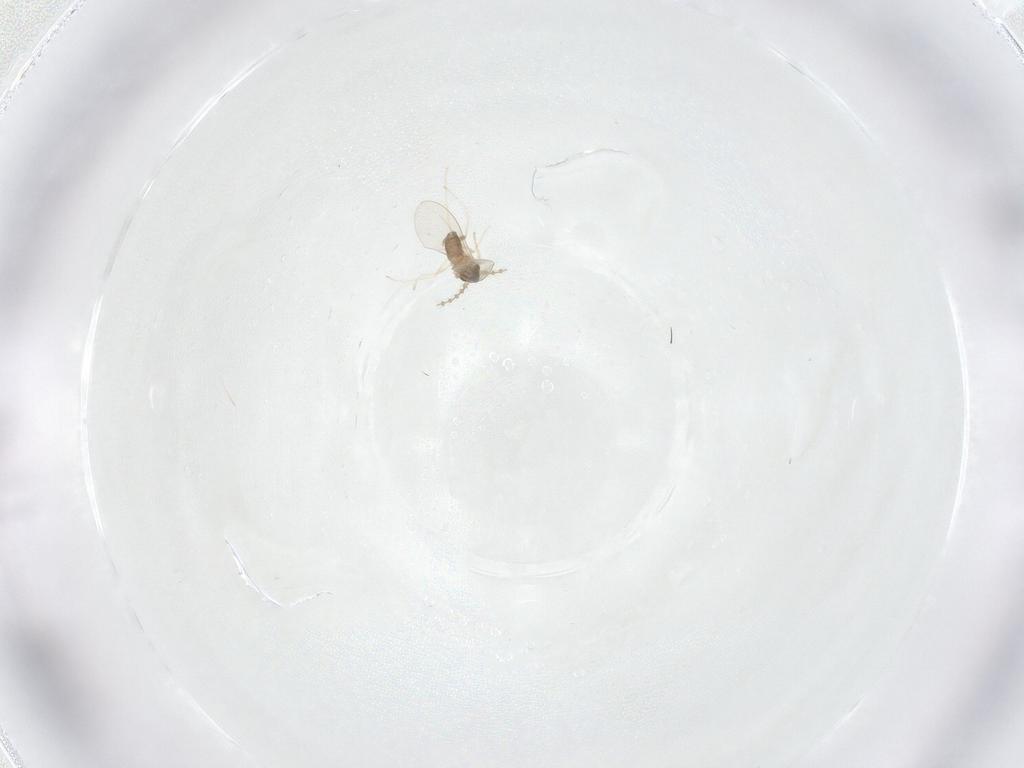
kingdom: Animalia
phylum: Arthropoda
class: Insecta
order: Diptera
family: Cecidomyiidae
